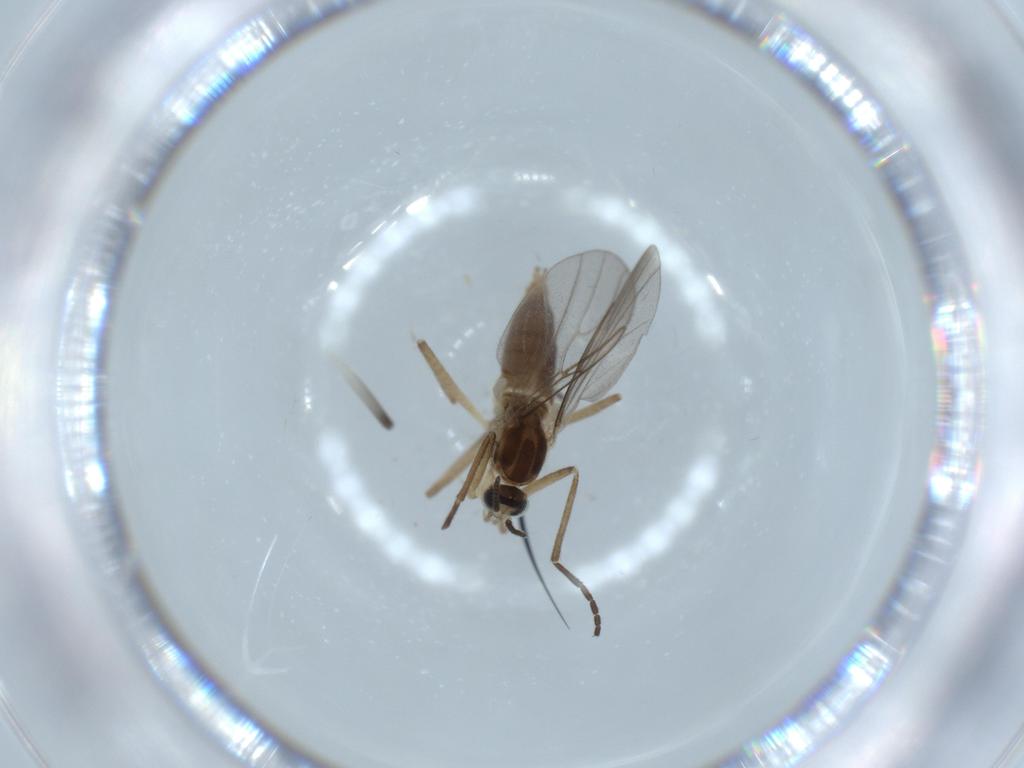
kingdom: Animalia
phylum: Arthropoda
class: Insecta
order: Diptera
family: Cecidomyiidae
